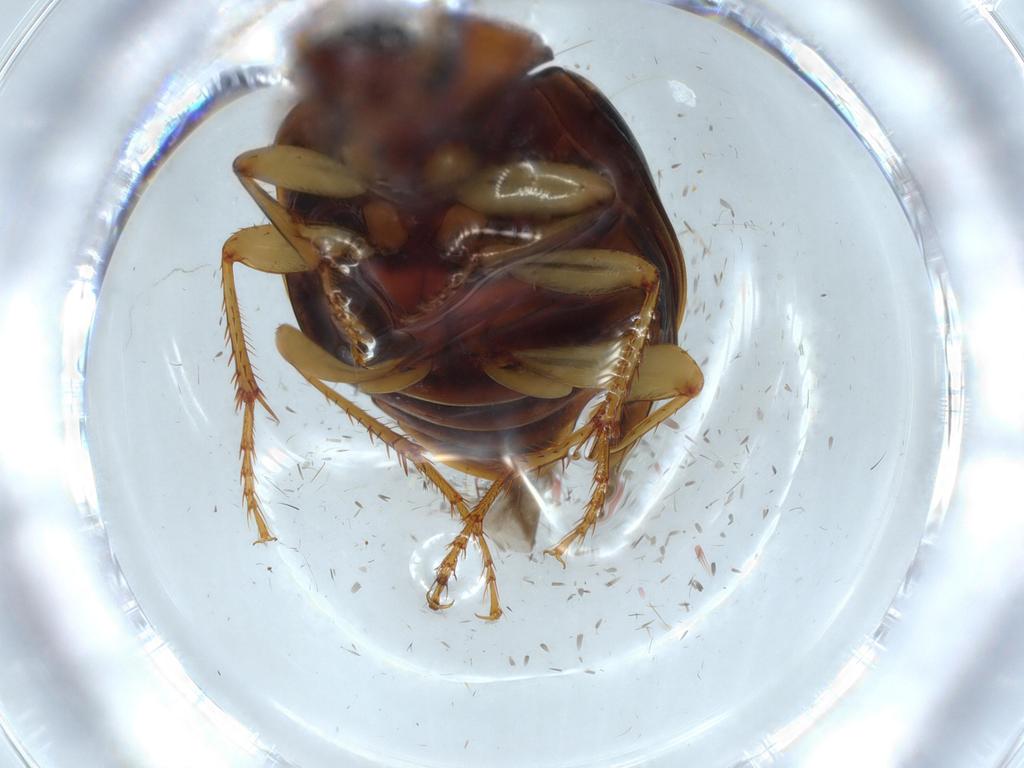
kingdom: Animalia
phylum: Arthropoda
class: Insecta
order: Coleoptera
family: Carabidae
